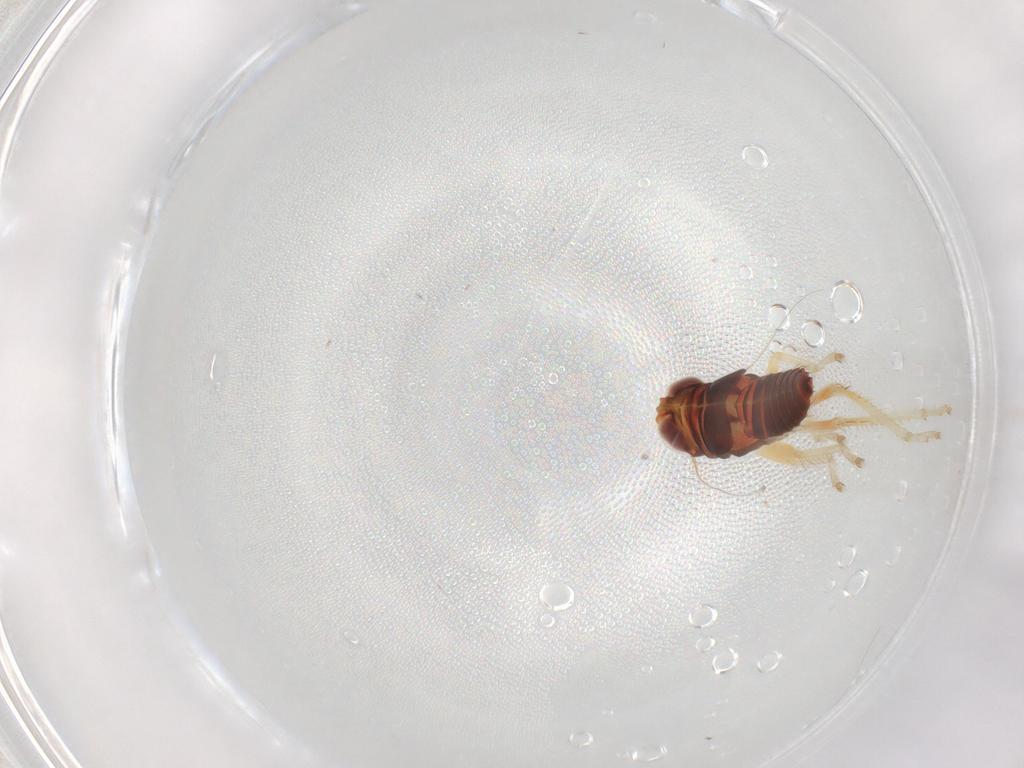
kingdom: Animalia
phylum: Arthropoda
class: Insecta
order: Hemiptera
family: Cicadellidae
